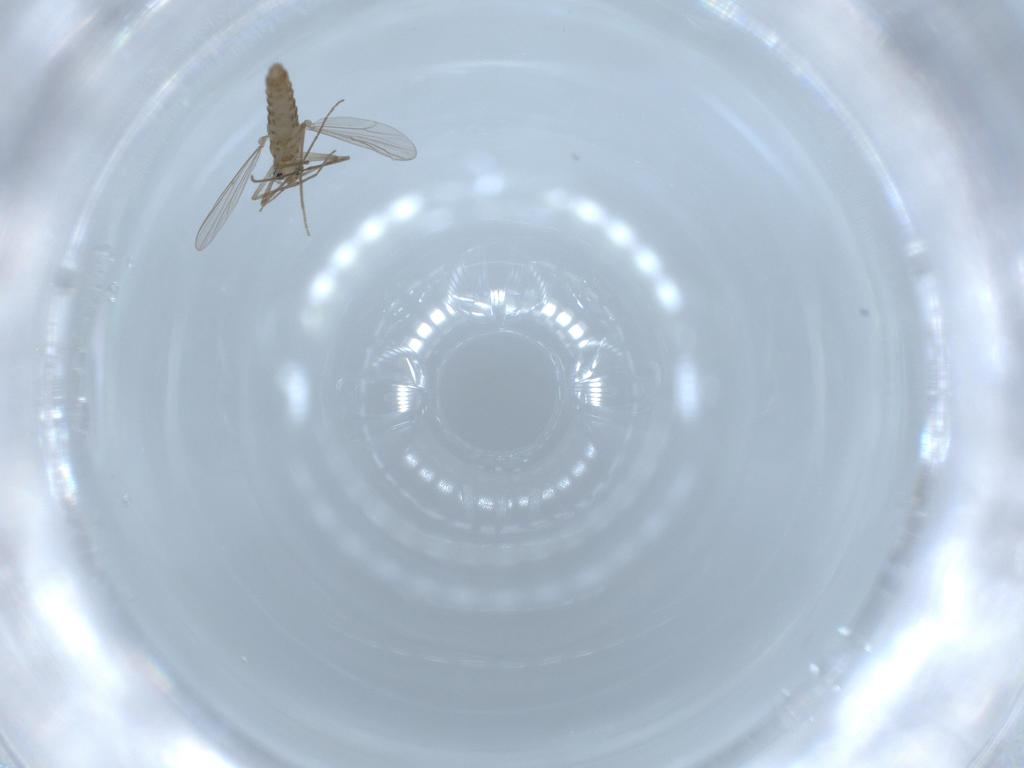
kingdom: Animalia
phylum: Arthropoda
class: Insecta
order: Diptera
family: Chironomidae
